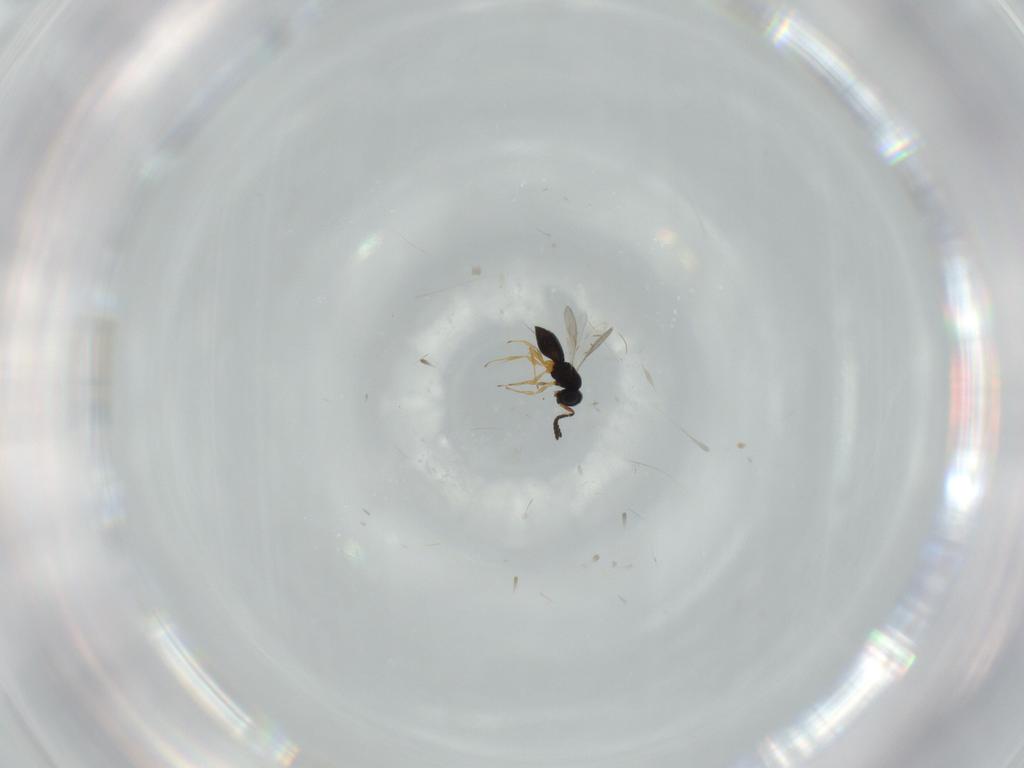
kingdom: Animalia
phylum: Arthropoda
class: Insecta
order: Hymenoptera
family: Scelionidae
